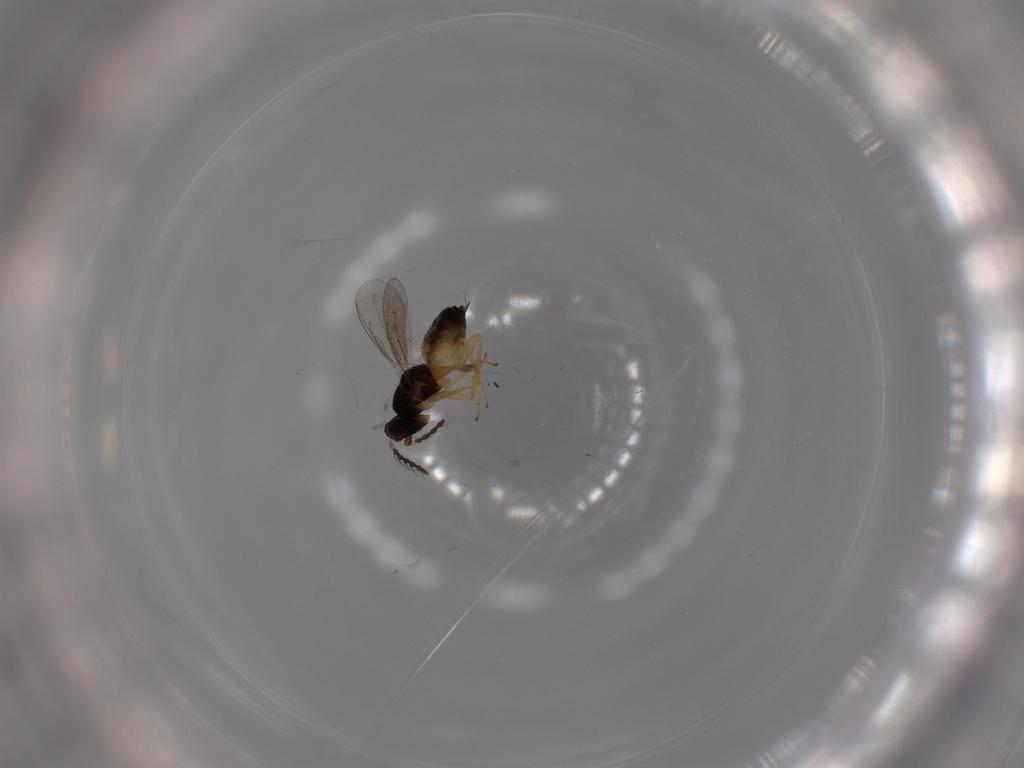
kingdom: Animalia
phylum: Arthropoda
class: Insecta
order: Hymenoptera
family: Eulophidae
